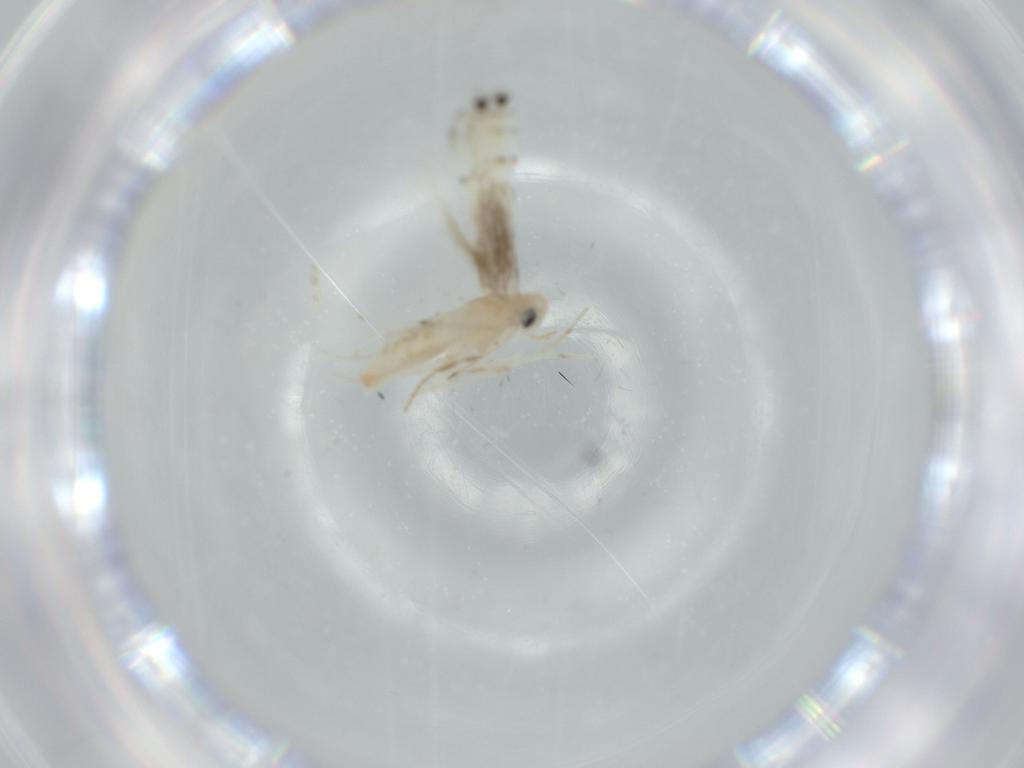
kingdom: Animalia
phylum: Arthropoda
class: Insecta
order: Lepidoptera
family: Gracillariidae
